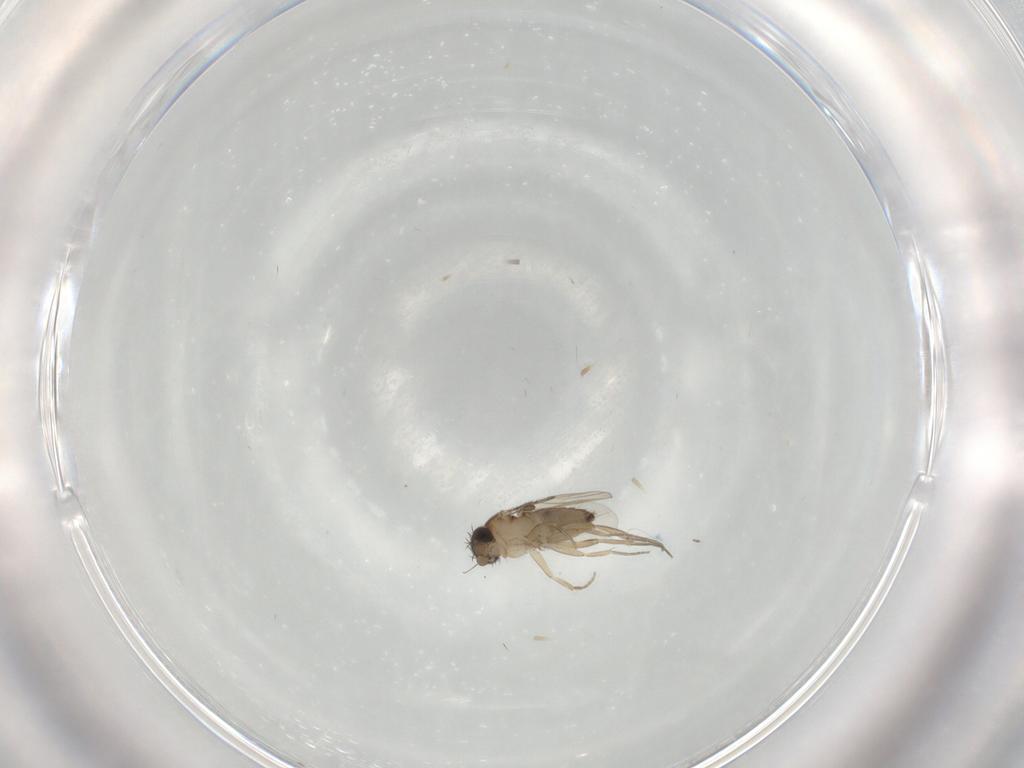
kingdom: Animalia
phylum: Arthropoda
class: Insecta
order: Diptera
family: Phoridae
